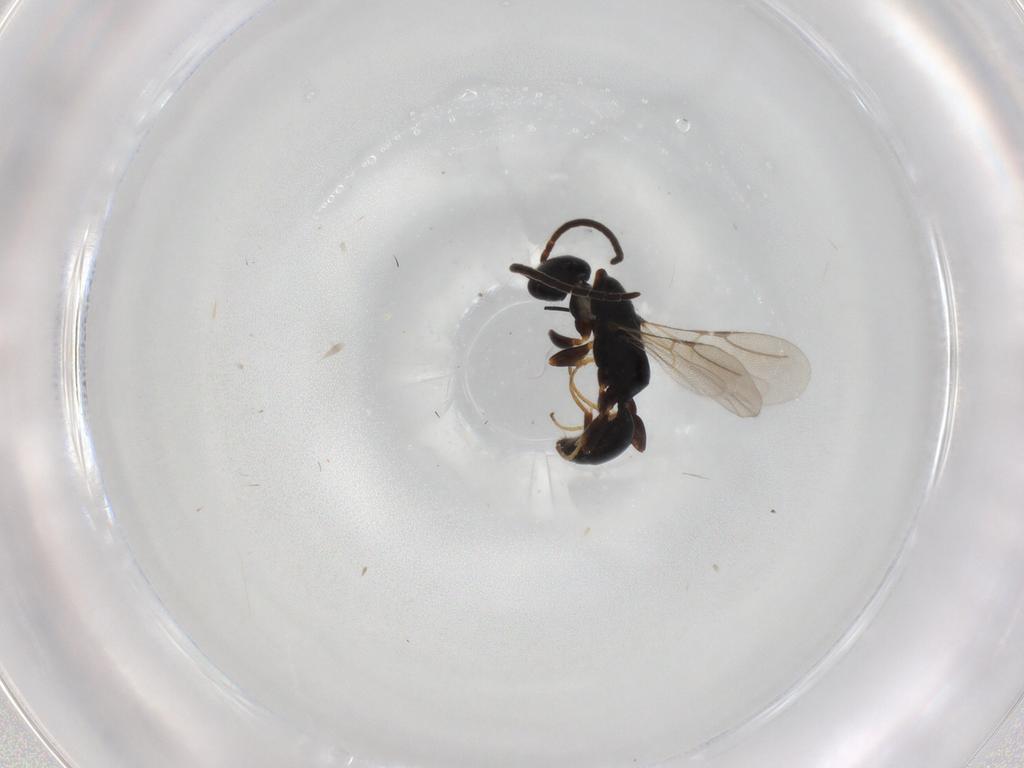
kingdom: Animalia
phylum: Arthropoda
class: Insecta
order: Hymenoptera
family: Bethylidae
